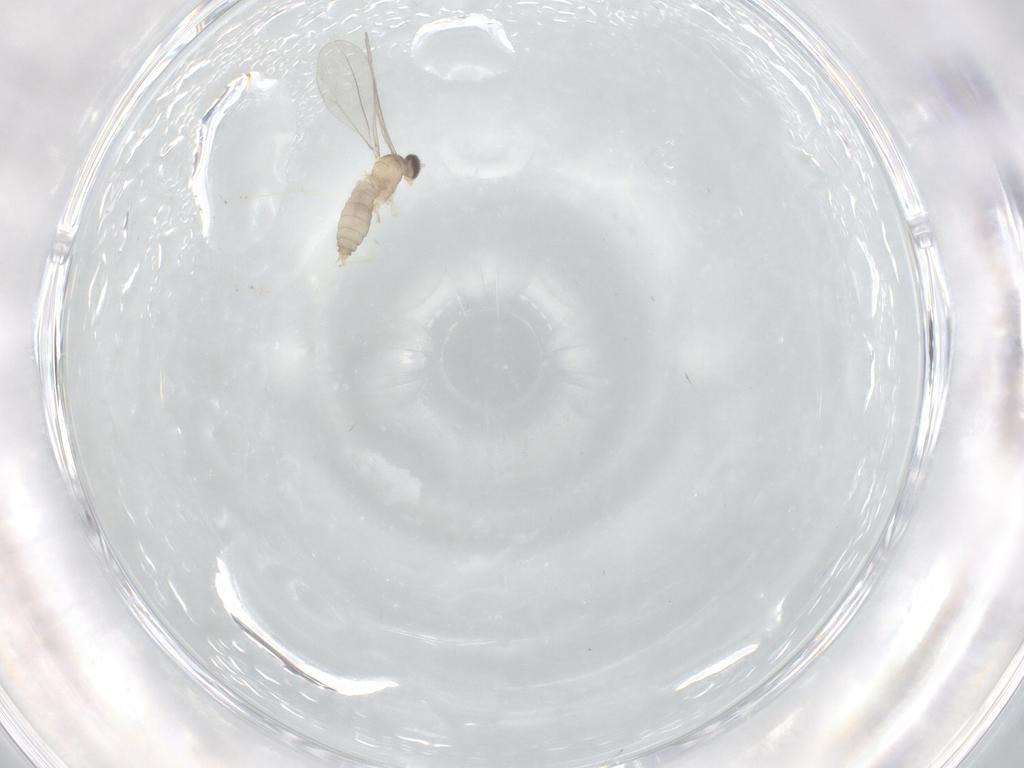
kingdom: Animalia
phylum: Arthropoda
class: Insecta
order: Diptera
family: Cecidomyiidae
